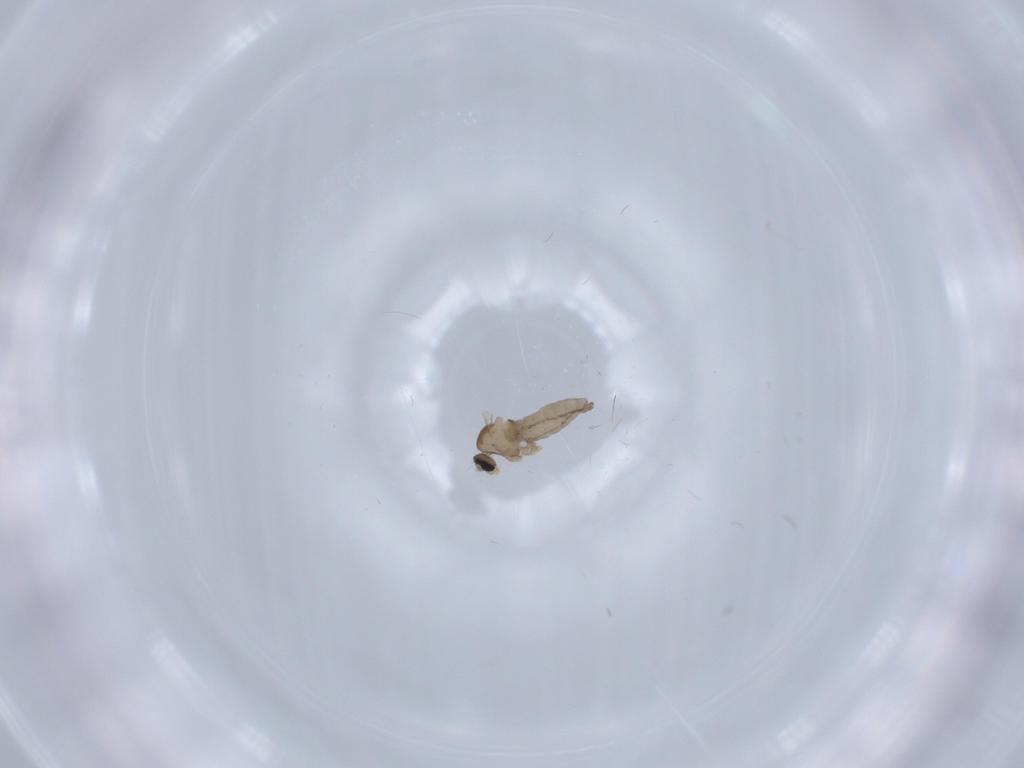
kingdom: Animalia
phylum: Arthropoda
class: Insecta
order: Diptera
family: Cecidomyiidae
